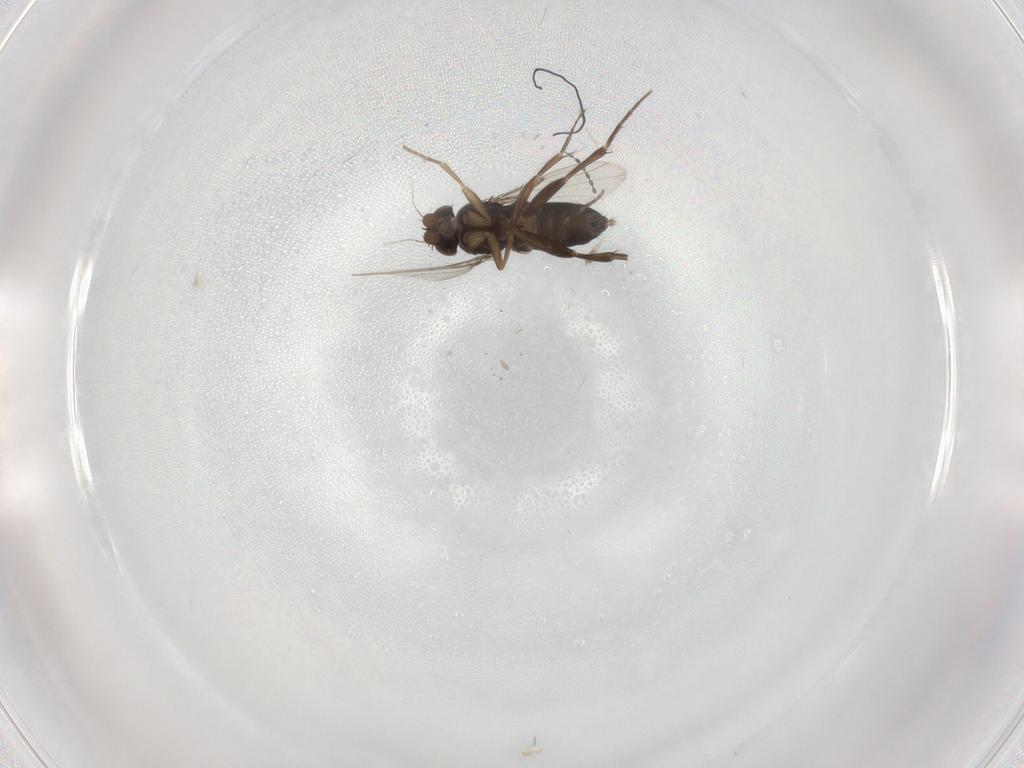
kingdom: Animalia
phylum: Arthropoda
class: Insecta
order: Diptera
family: Phoridae
